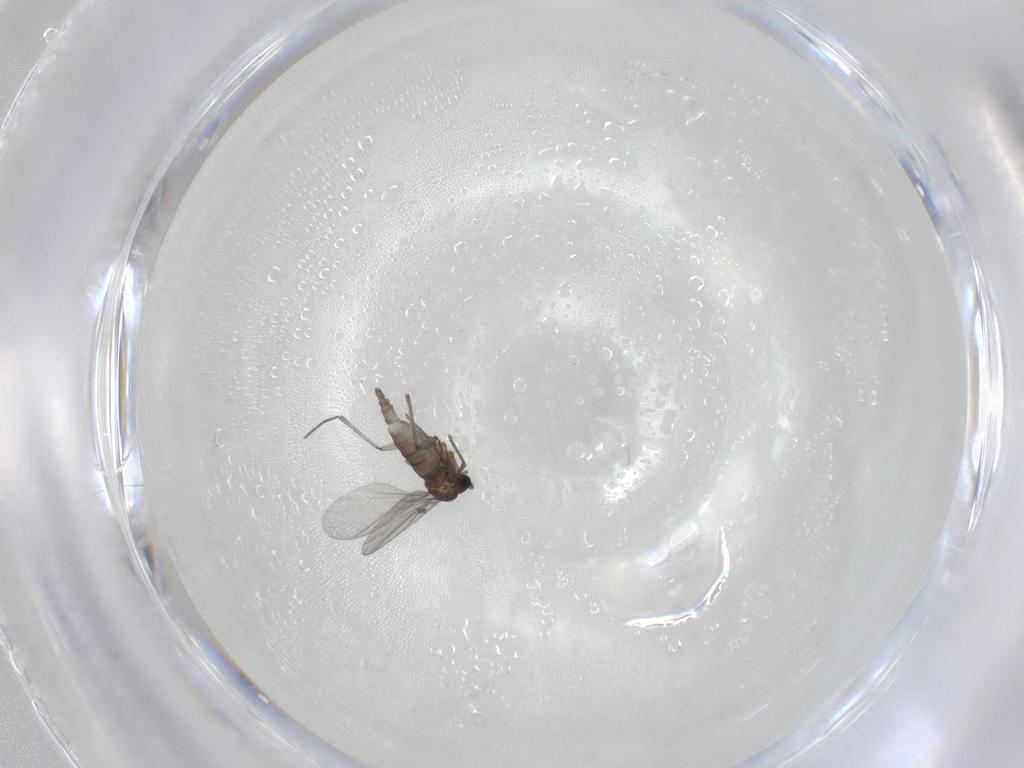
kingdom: Animalia
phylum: Arthropoda
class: Insecta
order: Diptera
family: Sciaridae
